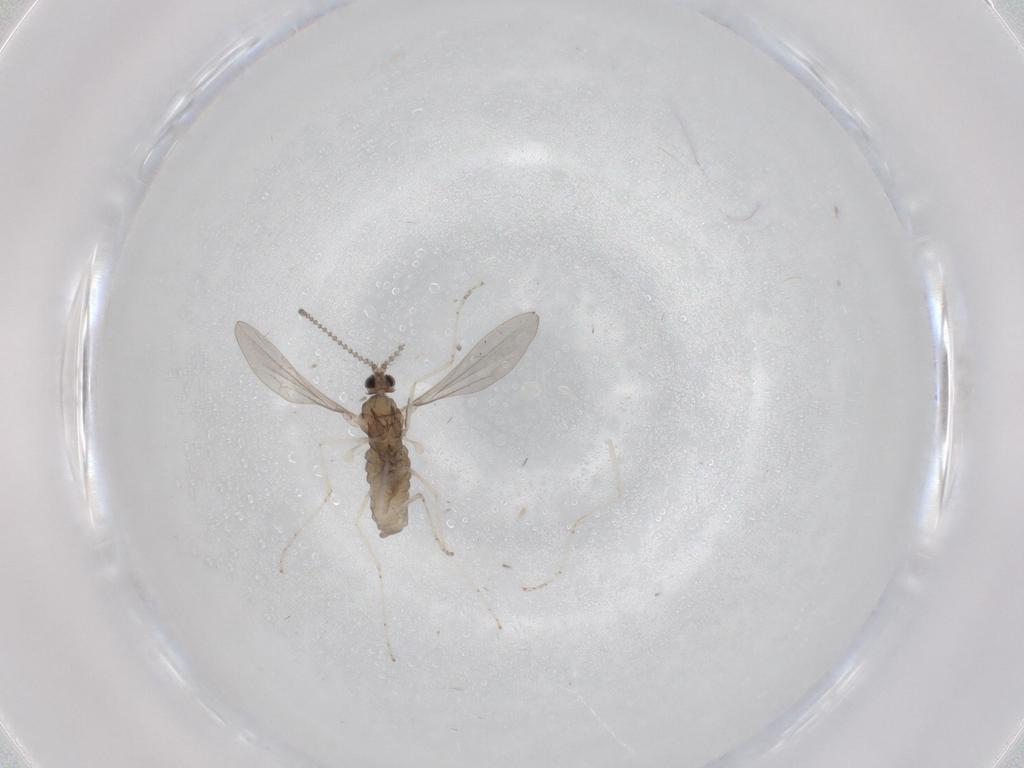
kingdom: Animalia
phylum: Arthropoda
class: Insecta
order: Diptera
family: Cecidomyiidae
